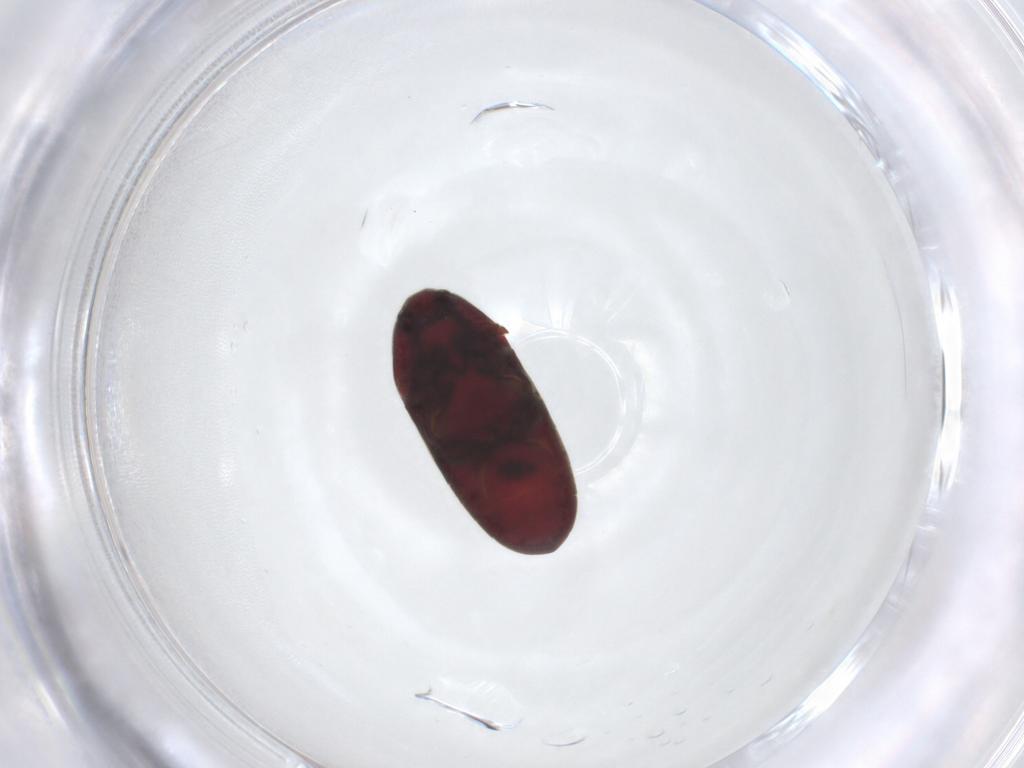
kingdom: Animalia
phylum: Arthropoda
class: Insecta
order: Coleoptera
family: Throscidae
